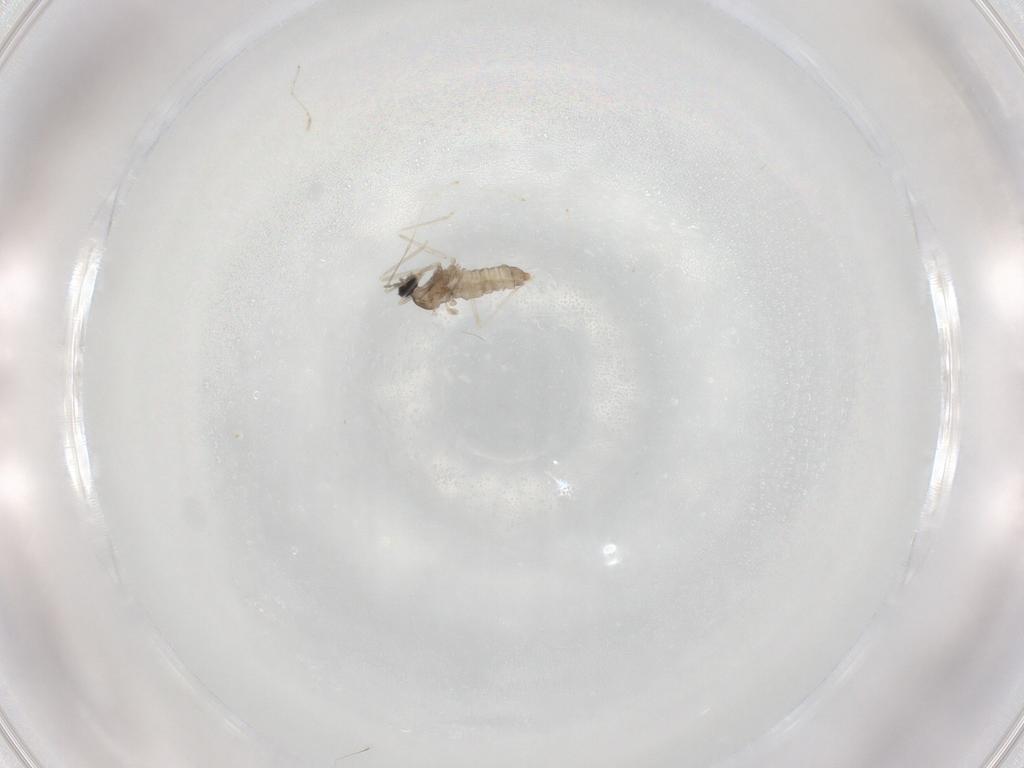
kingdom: Animalia
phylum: Arthropoda
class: Insecta
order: Diptera
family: Cecidomyiidae
